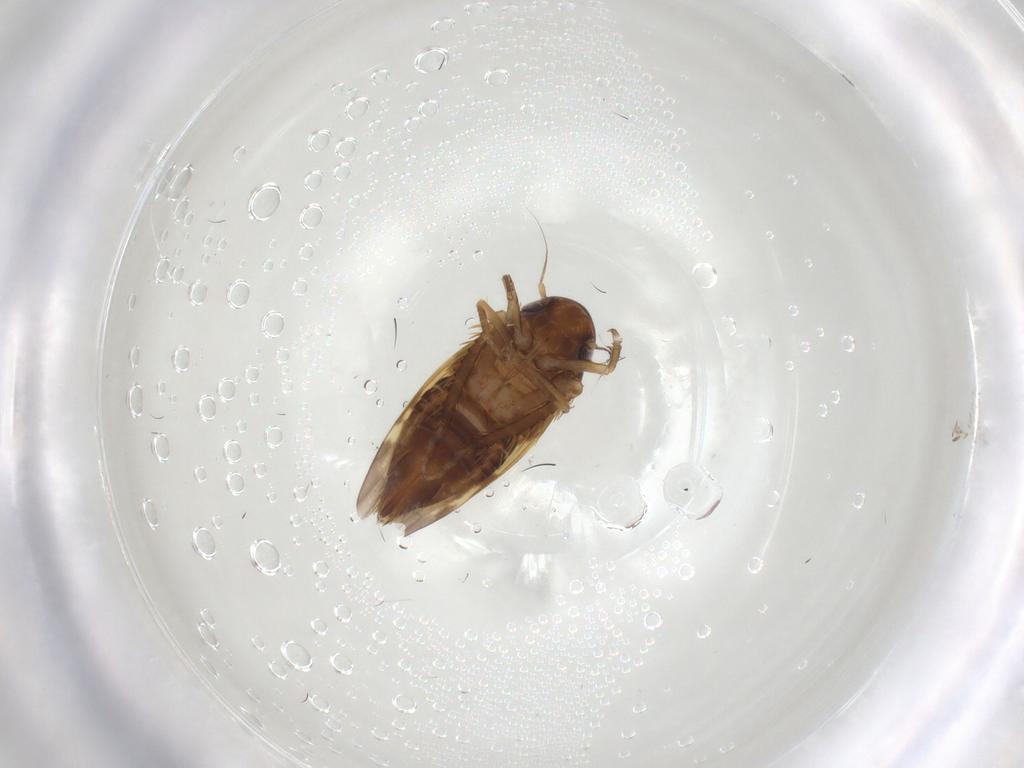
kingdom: Animalia
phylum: Arthropoda
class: Insecta
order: Hemiptera
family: Cicadellidae
